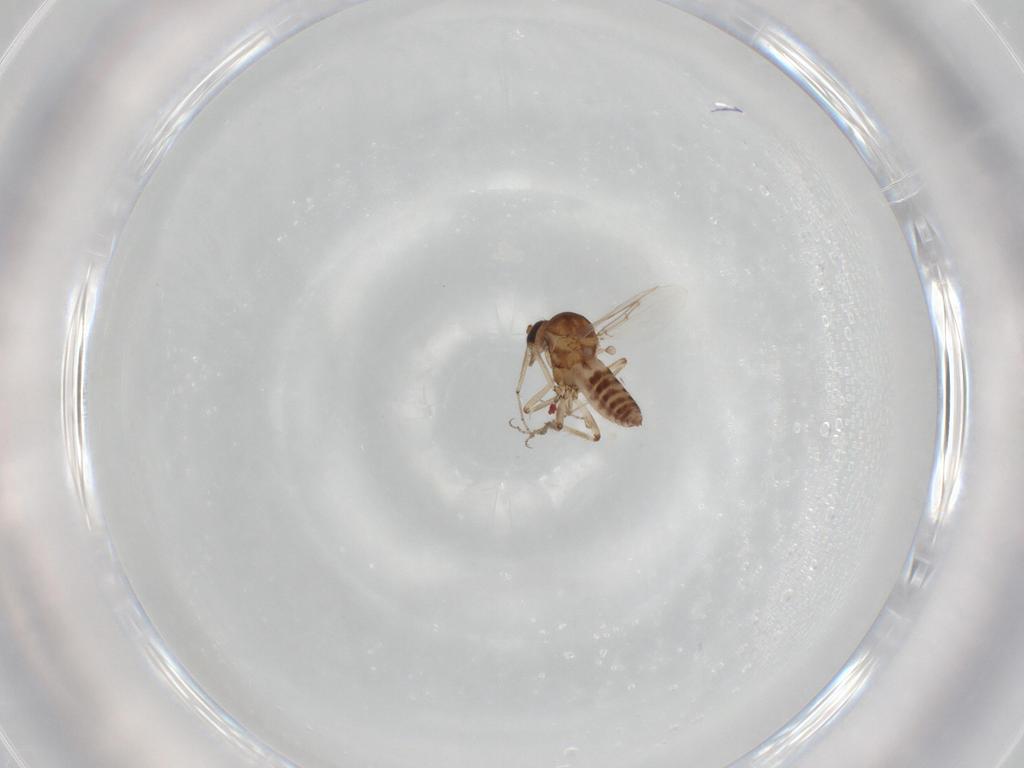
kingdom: Animalia
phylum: Arthropoda
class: Insecta
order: Diptera
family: Ceratopogonidae
